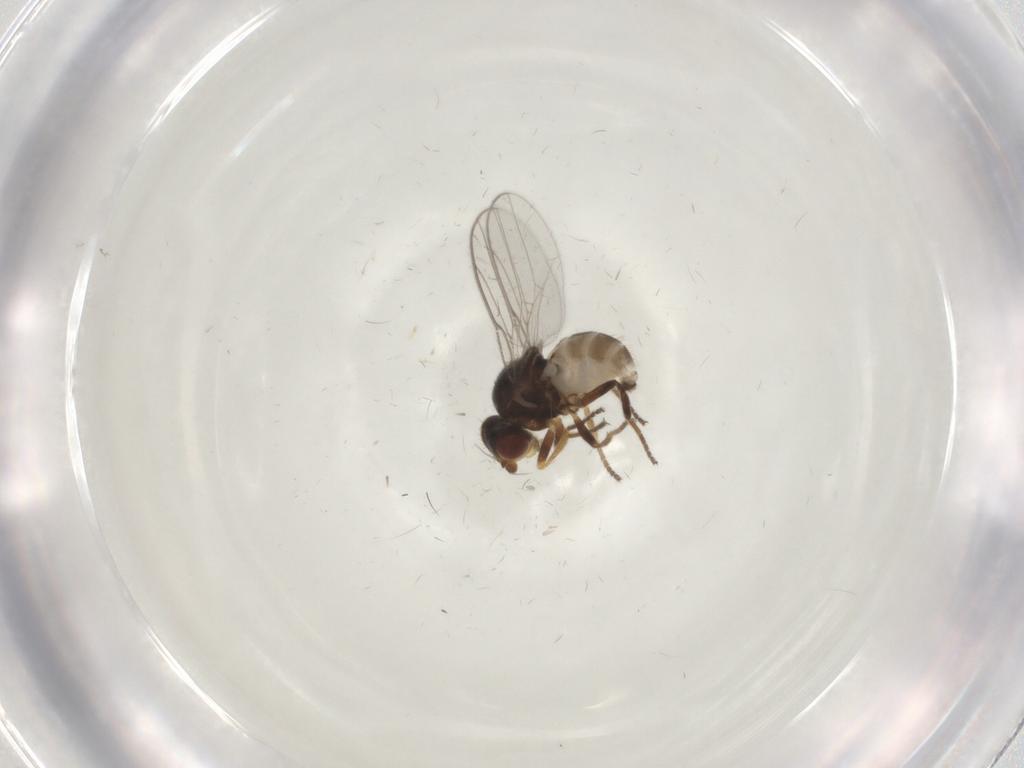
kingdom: Animalia
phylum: Arthropoda
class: Insecta
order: Diptera
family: Chloropidae
